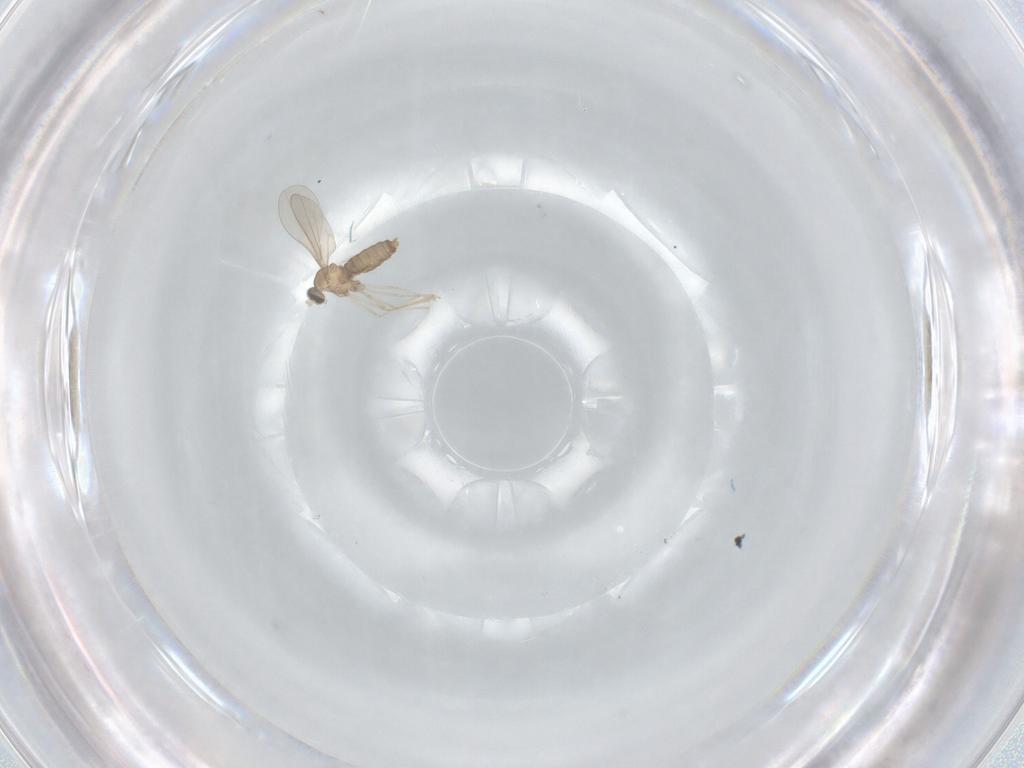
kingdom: Animalia
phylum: Arthropoda
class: Insecta
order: Diptera
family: Cecidomyiidae
